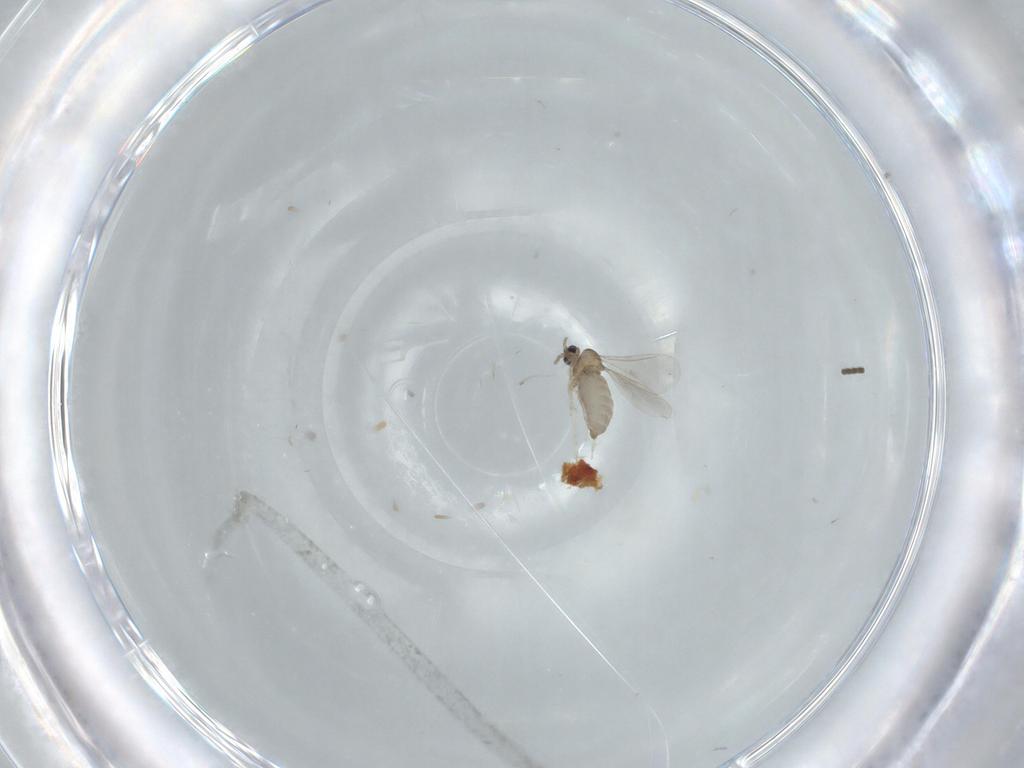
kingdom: Animalia
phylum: Arthropoda
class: Insecta
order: Diptera
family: Sciaridae
